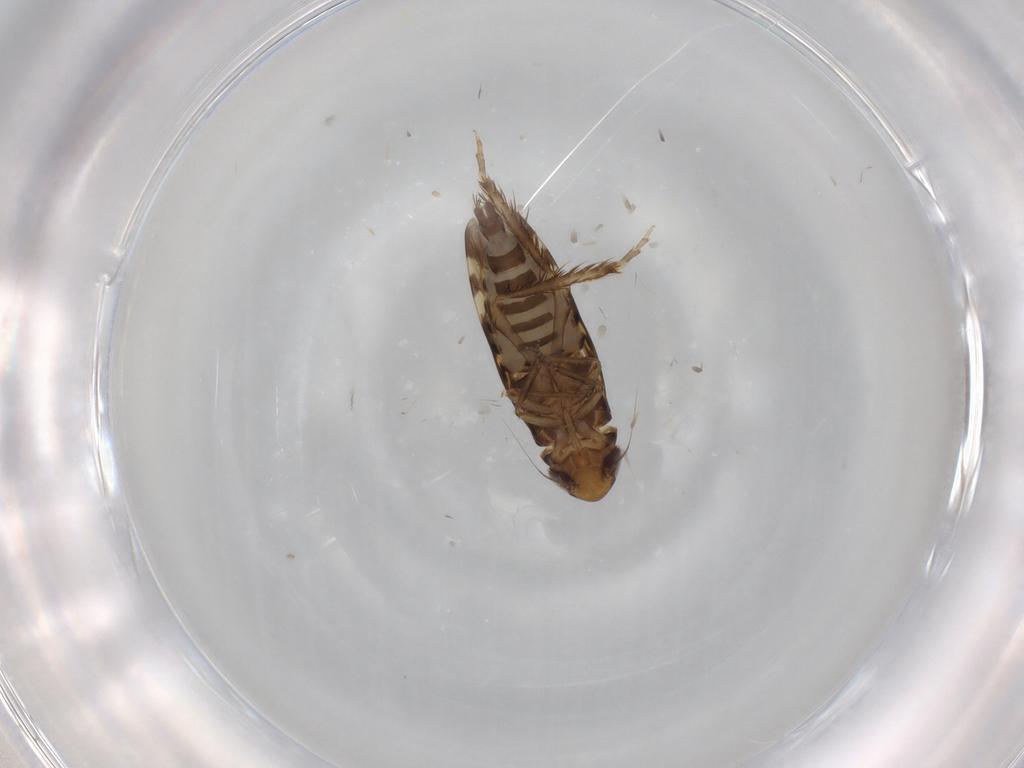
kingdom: Animalia
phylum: Arthropoda
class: Insecta
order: Hemiptera
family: Cicadellidae
